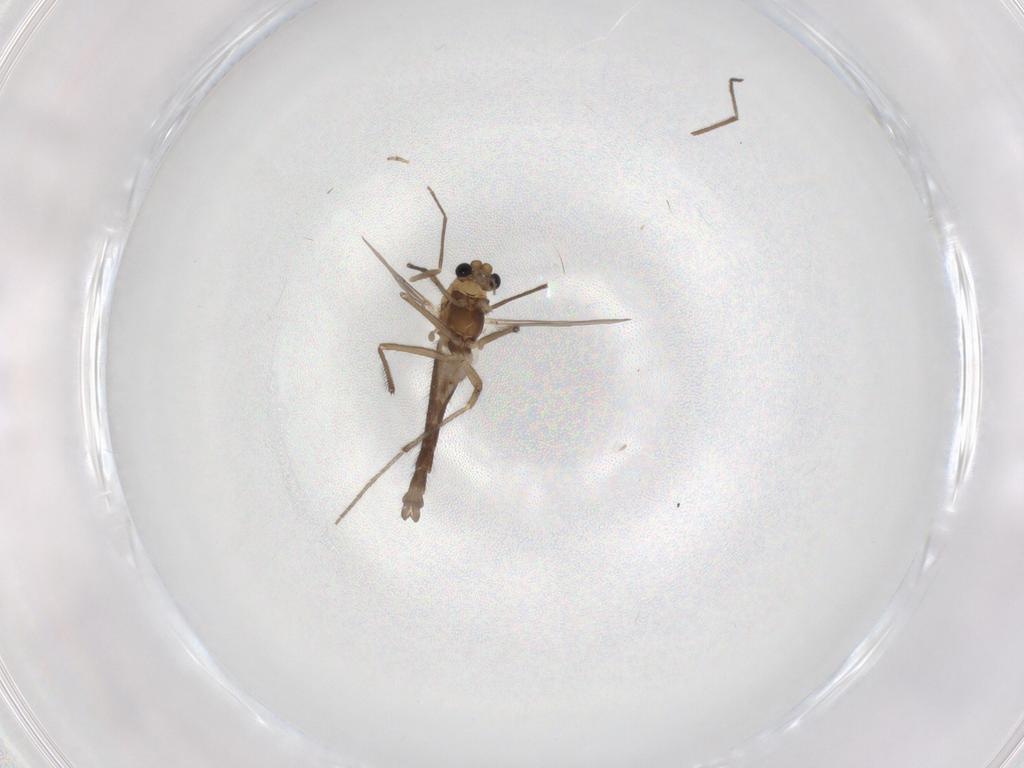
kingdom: Animalia
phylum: Arthropoda
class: Insecta
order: Diptera
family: Chironomidae
